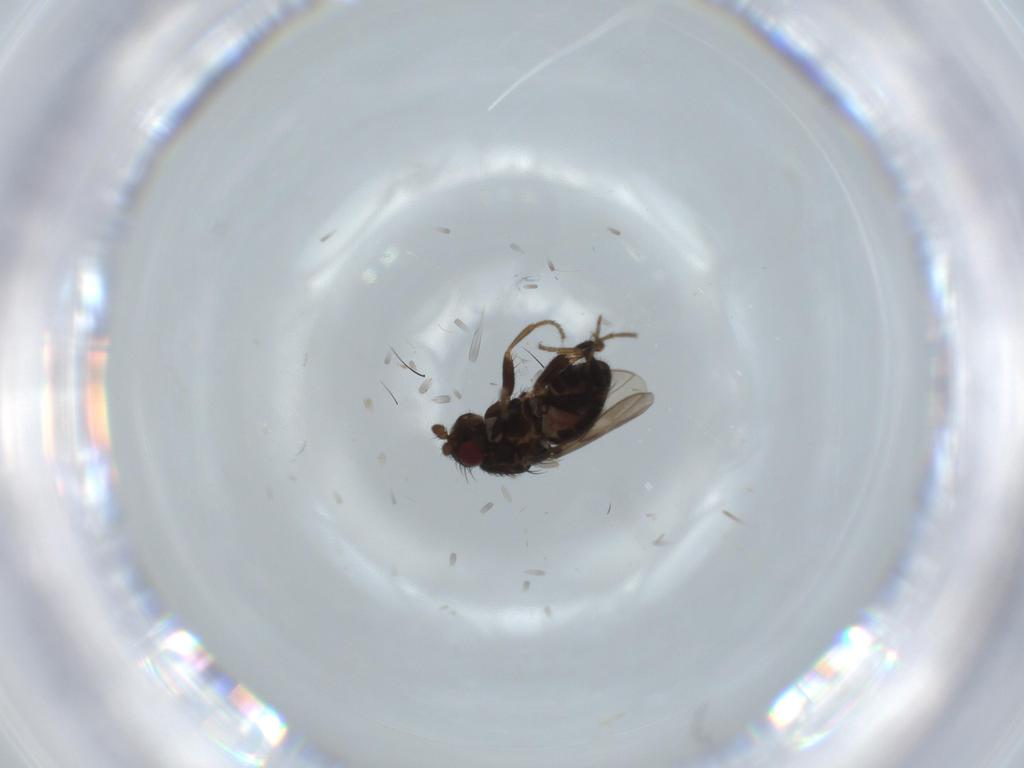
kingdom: Animalia
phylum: Arthropoda
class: Insecta
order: Diptera
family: Sphaeroceridae
